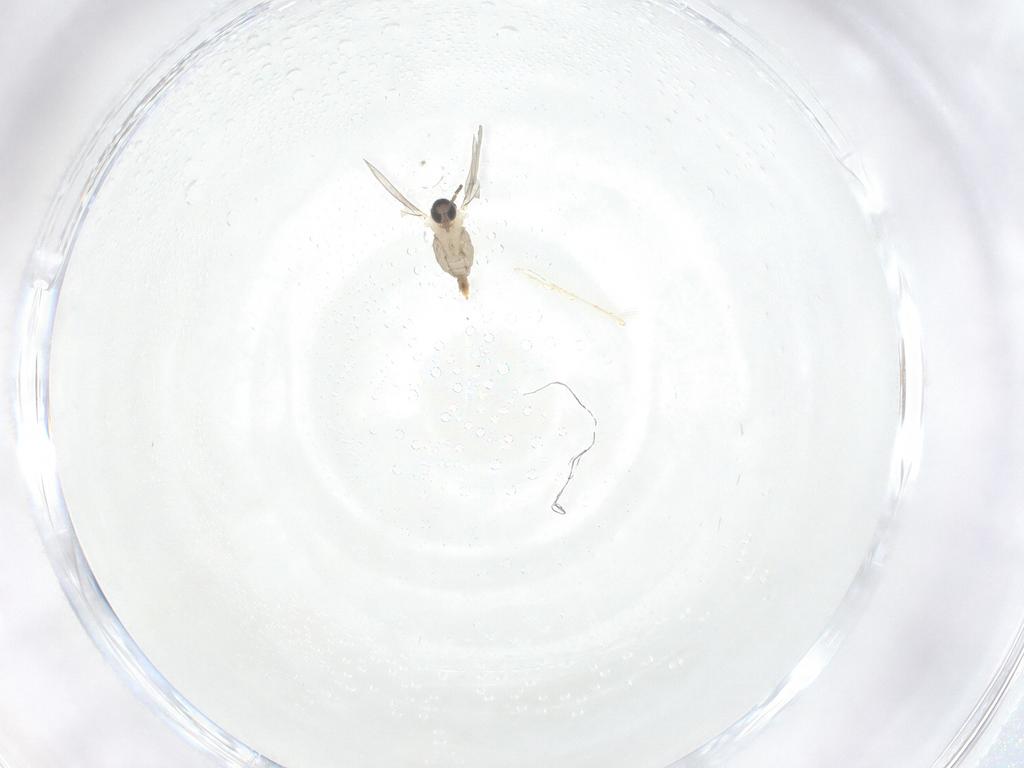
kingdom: Animalia
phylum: Arthropoda
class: Insecta
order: Diptera
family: Cecidomyiidae
